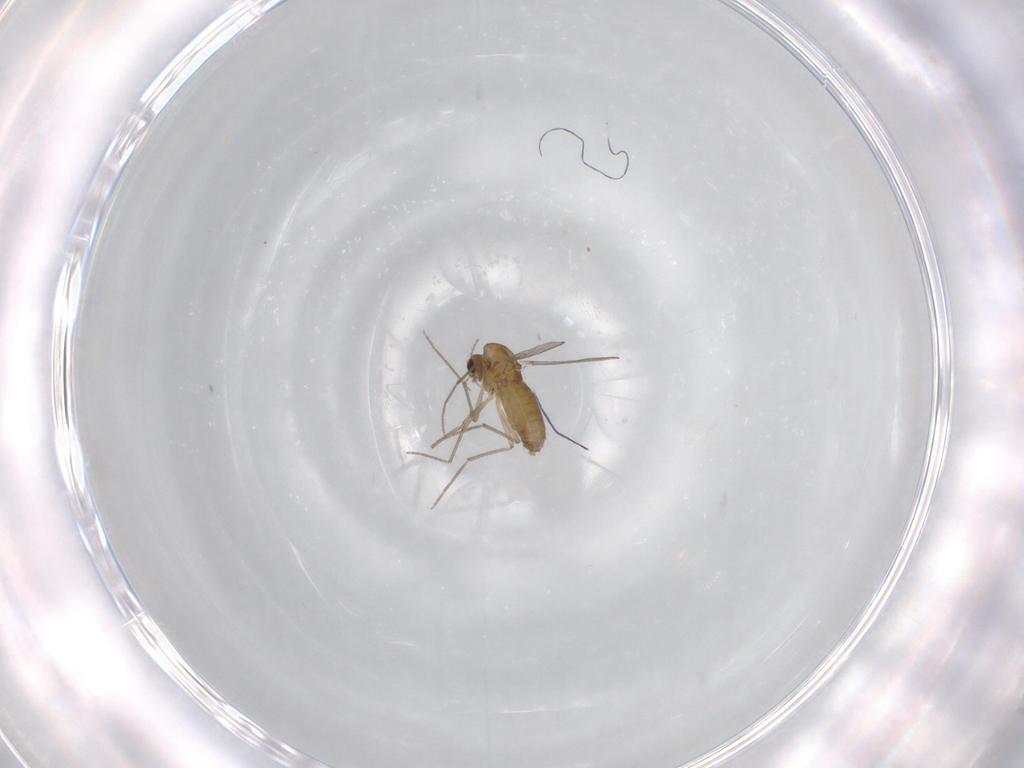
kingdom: Animalia
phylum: Arthropoda
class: Insecta
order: Diptera
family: Chironomidae
